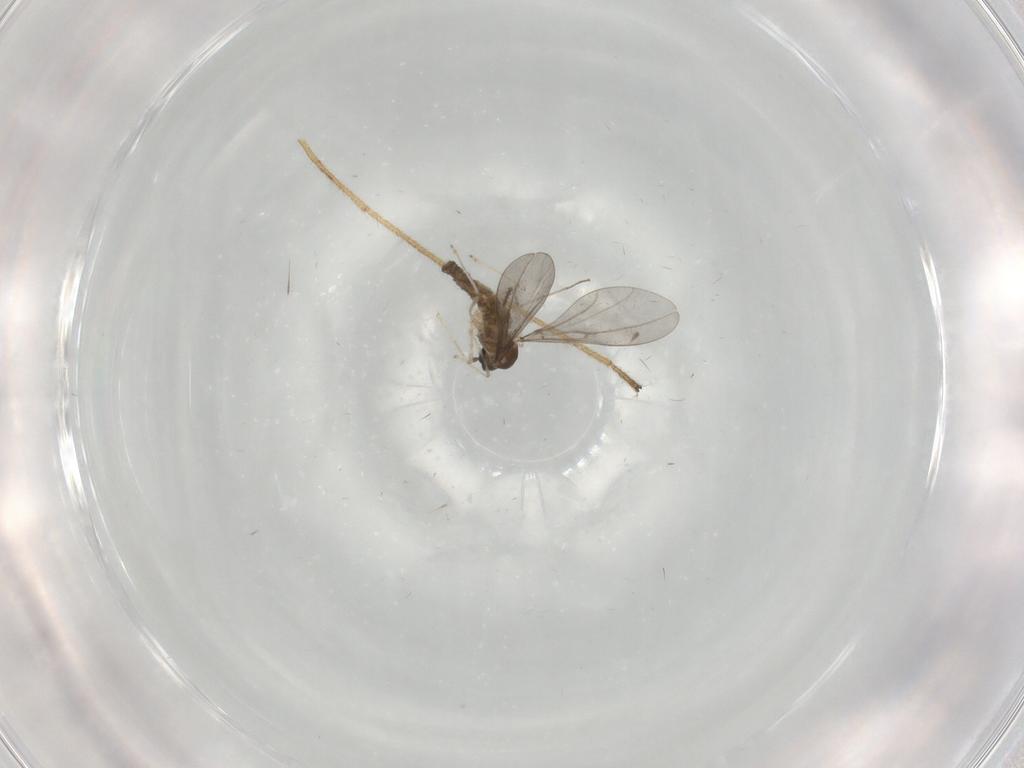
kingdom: Animalia
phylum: Arthropoda
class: Insecta
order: Diptera
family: Cecidomyiidae
